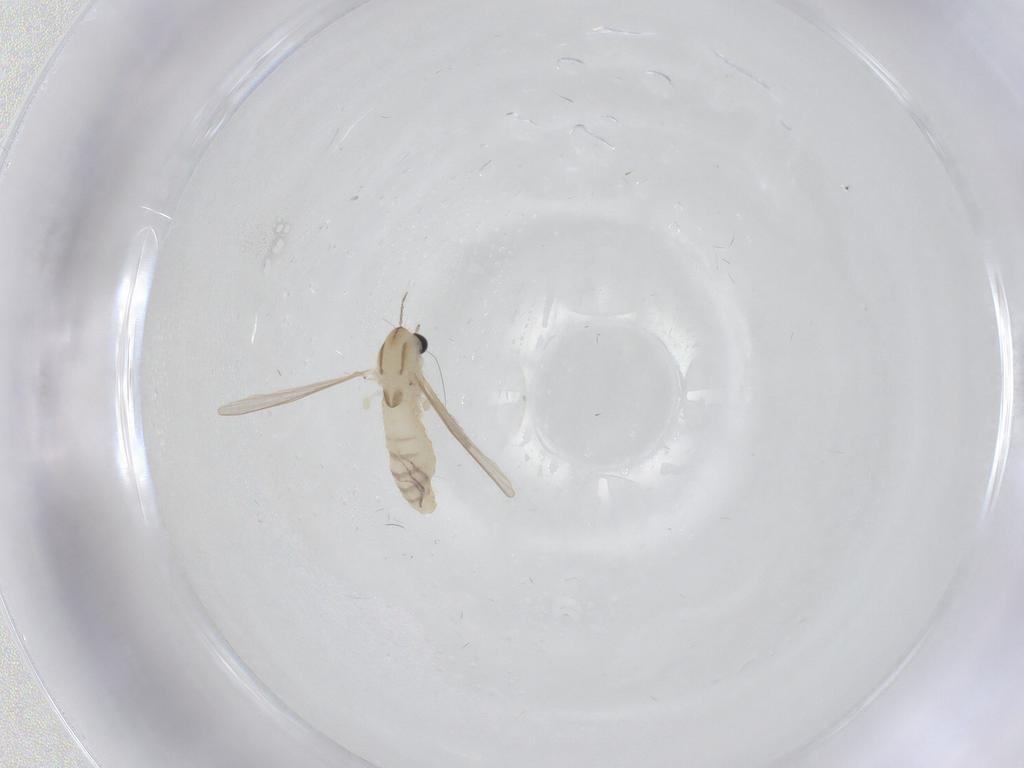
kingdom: Animalia
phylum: Arthropoda
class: Insecta
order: Diptera
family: Chironomidae
